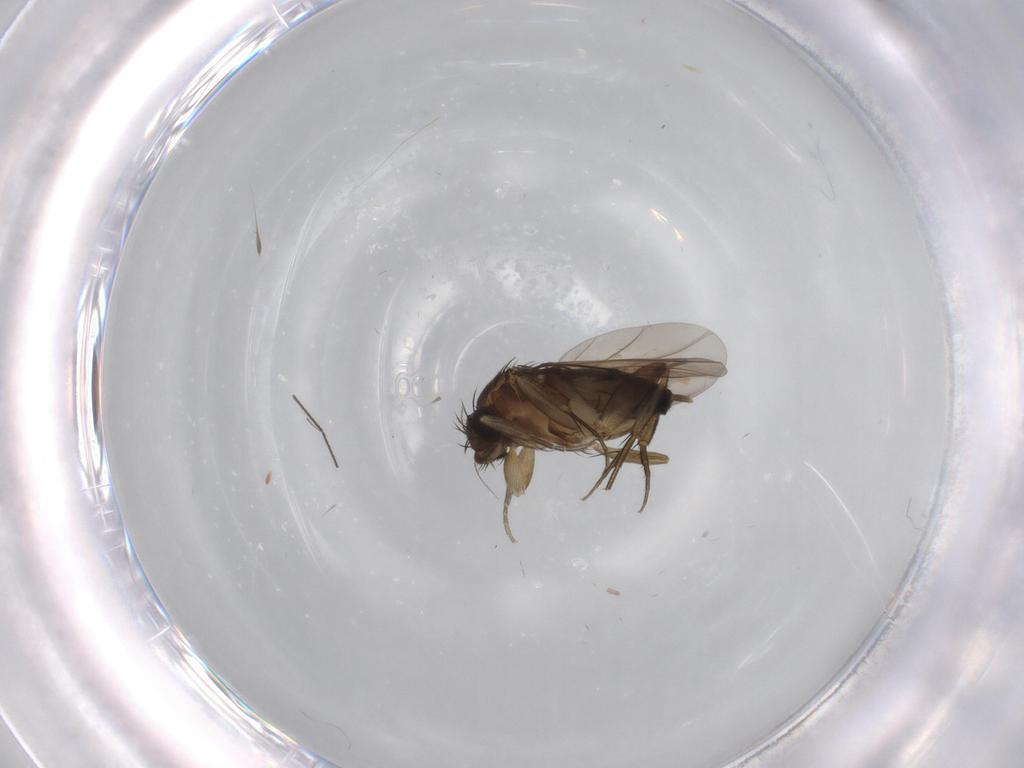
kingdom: Animalia
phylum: Arthropoda
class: Insecta
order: Diptera
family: Phoridae
